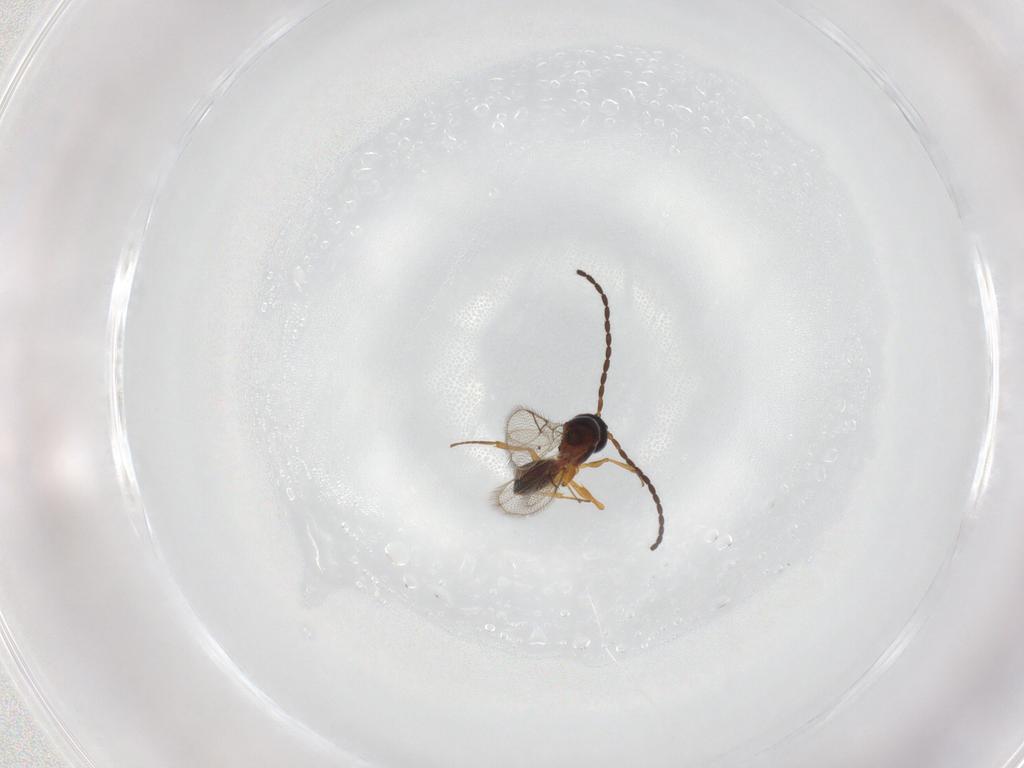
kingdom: Animalia
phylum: Arthropoda
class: Insecta
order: Hymenoptera
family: Figitidae
